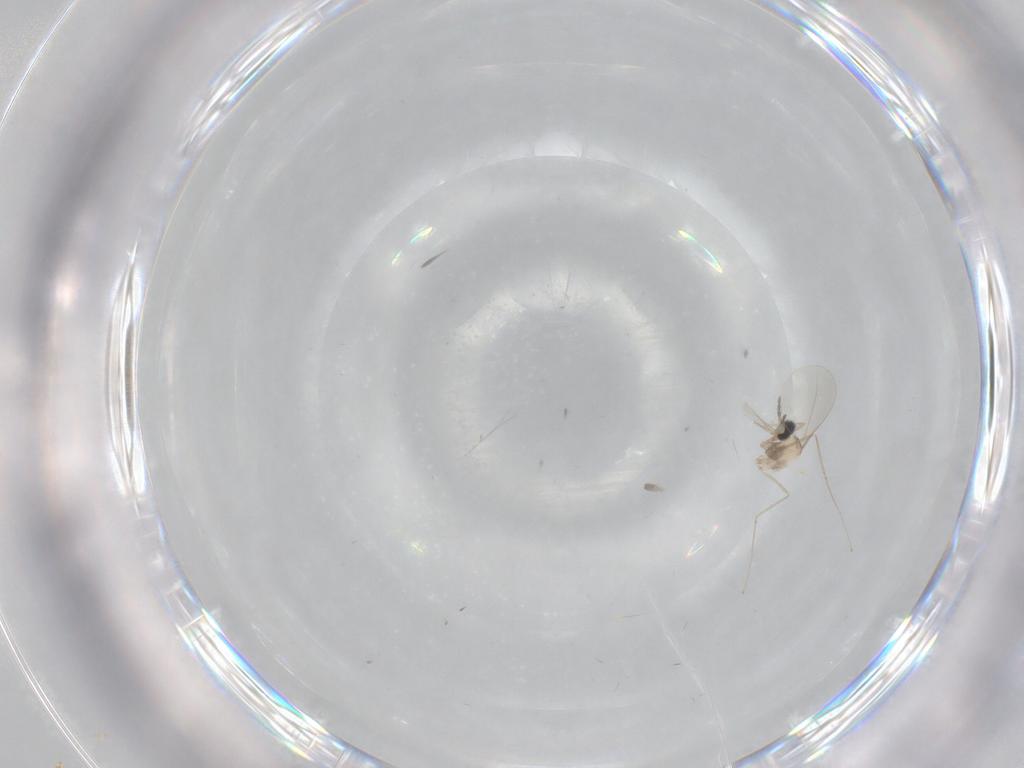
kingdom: Animalia
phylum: Arthropoda
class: Insecta
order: Diptera
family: Cecidomyiidae
